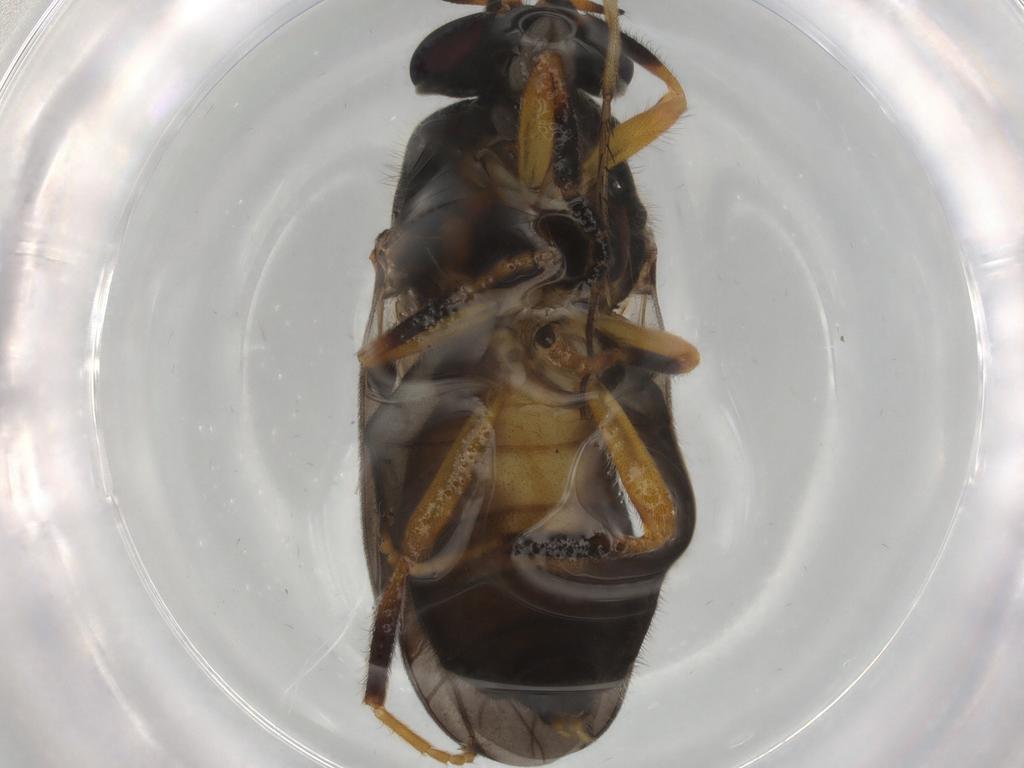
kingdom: Animalia
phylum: Arthropoda
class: Insecta
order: Diptera
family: Stratiomyidae
